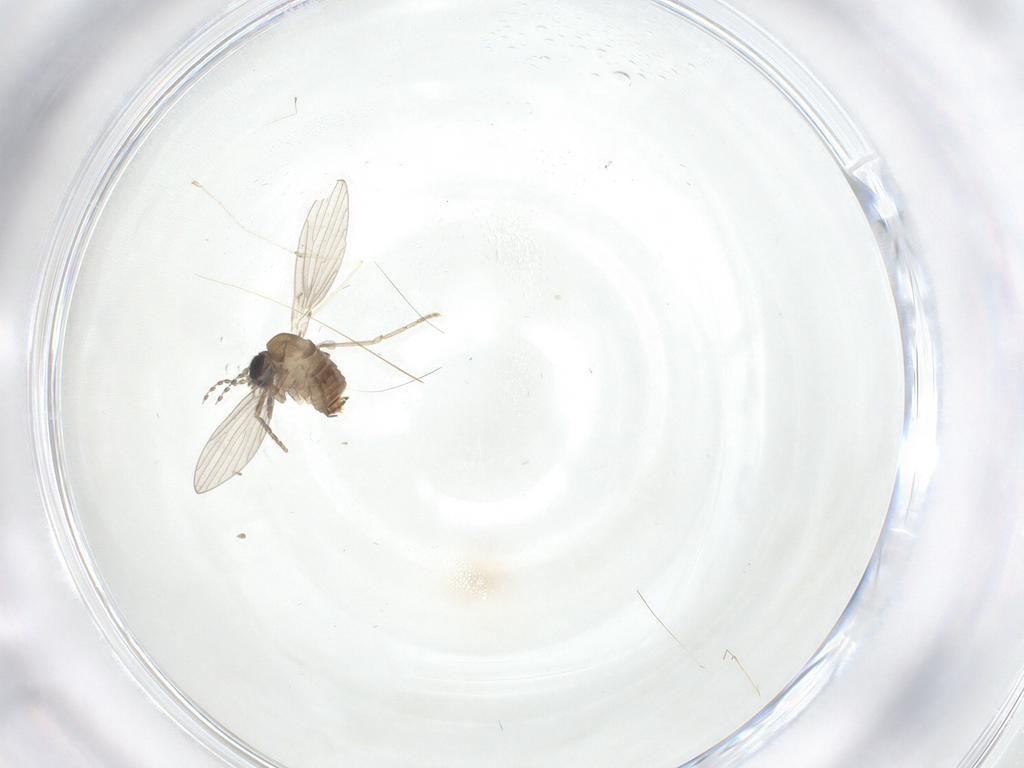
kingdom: Animalia
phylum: Arthropoda
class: Insecta
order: Diptera
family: Cecidomyiidae
